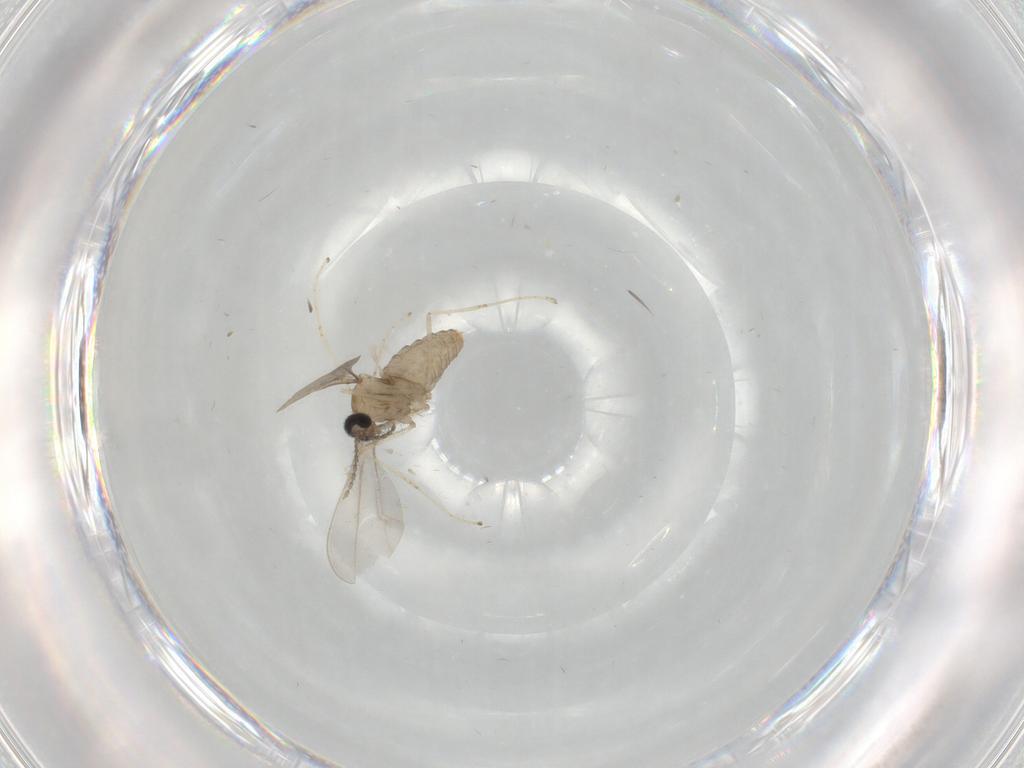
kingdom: Animalia
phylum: Arthropoda
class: Insecta
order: Diptera
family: Cecidomyiidae
